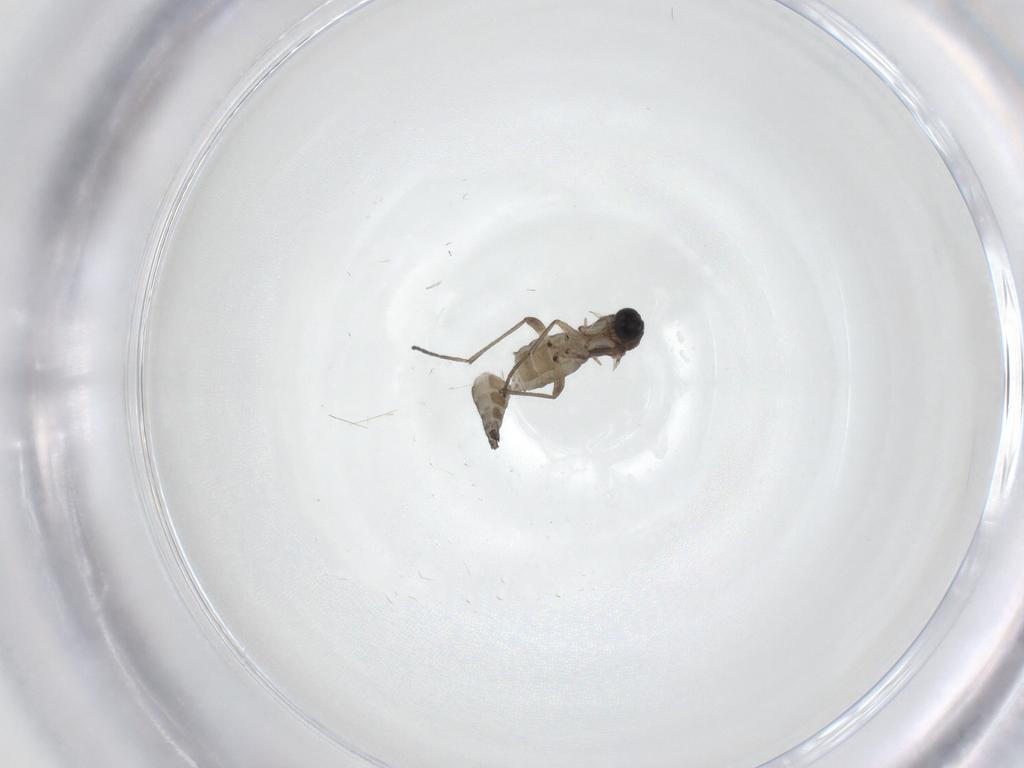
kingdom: Animalia
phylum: Arthropoda
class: Insecta
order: Diptera
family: Sciaridae
